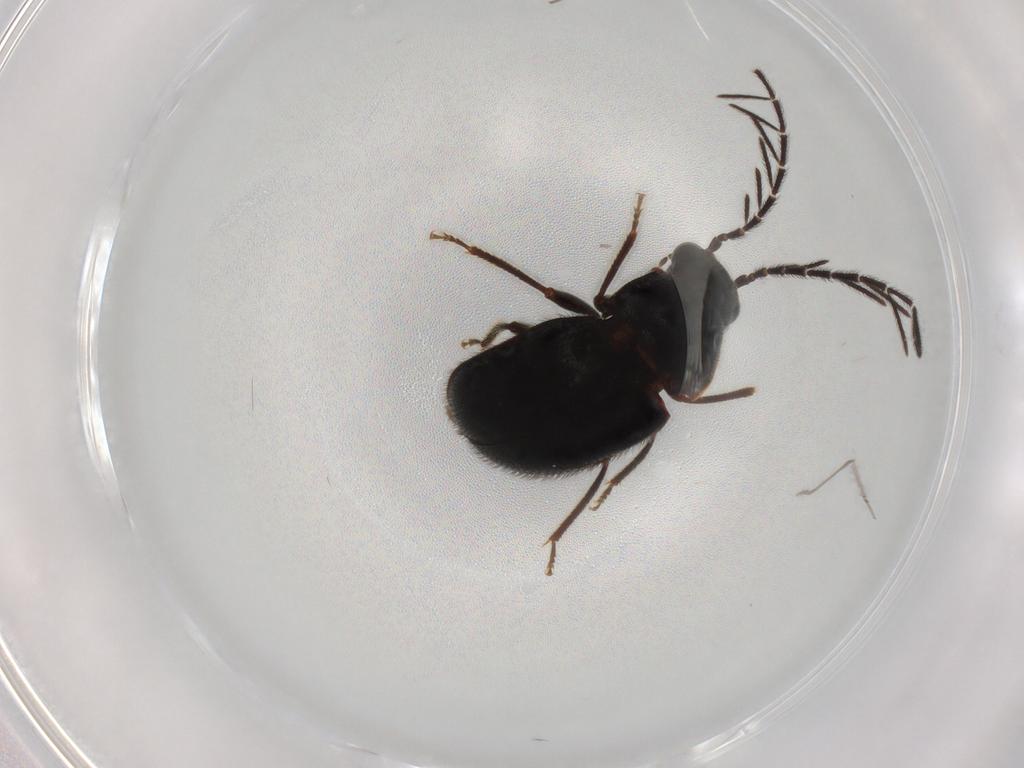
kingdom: Animalia
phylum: Arthropoda
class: Insecta
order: Coleoptera
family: Ptilodactylidae
